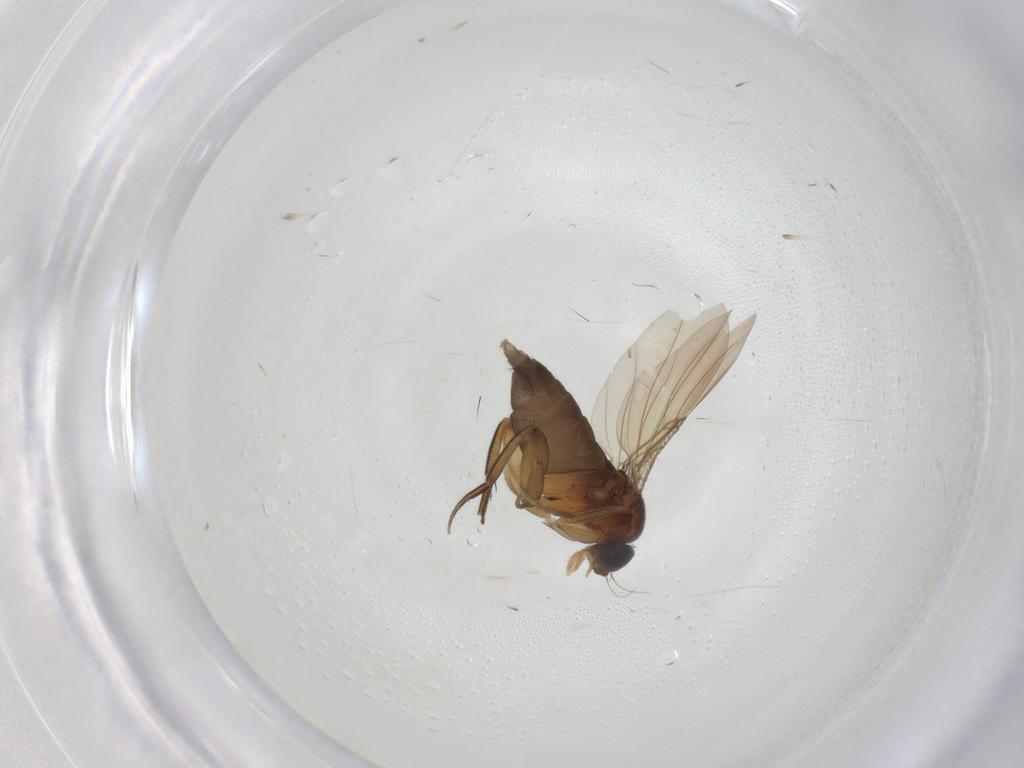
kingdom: Animalia
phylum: Arthropoda
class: Insecta
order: Diptera
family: Phoridae
